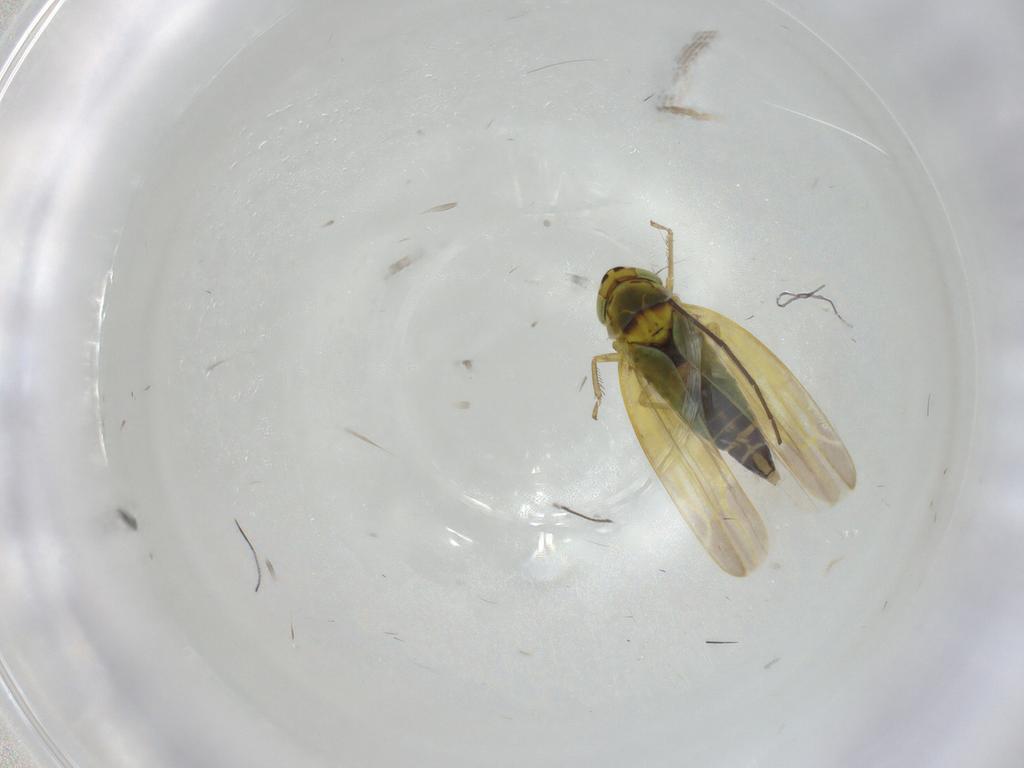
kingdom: Animalia
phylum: Arthropoda
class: Insecta
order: Hemiptera
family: Cicadellidae
